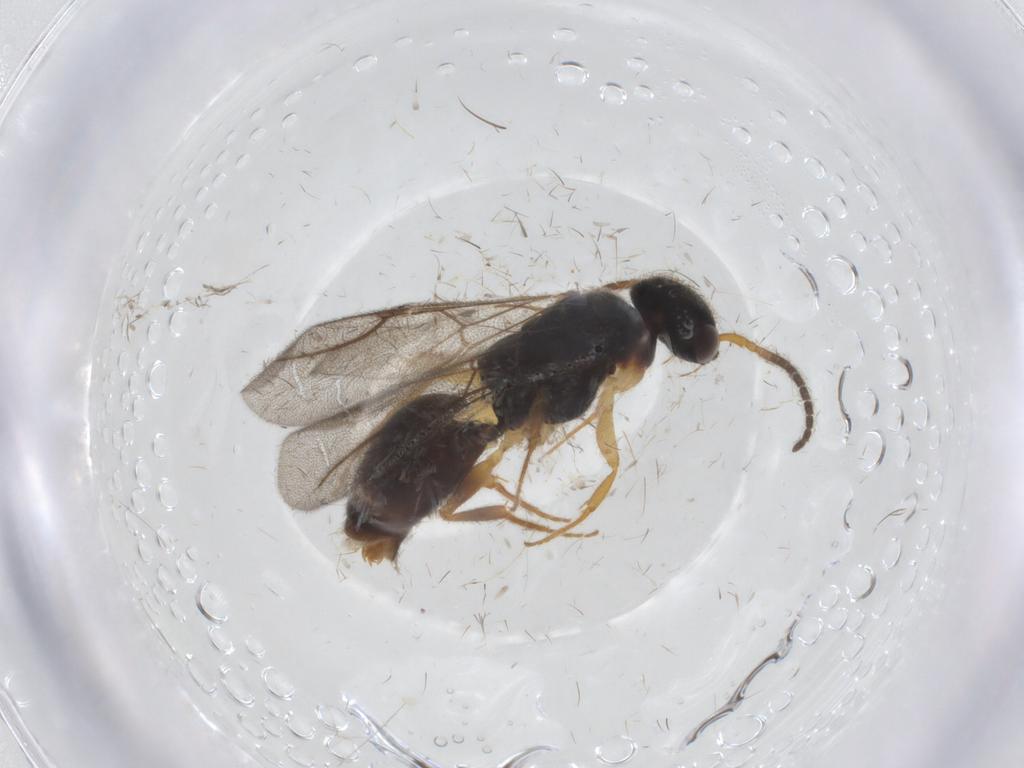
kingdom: Animalia
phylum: Arthropoda
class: Insecta
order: Hymenoptera
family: Bethylidae
